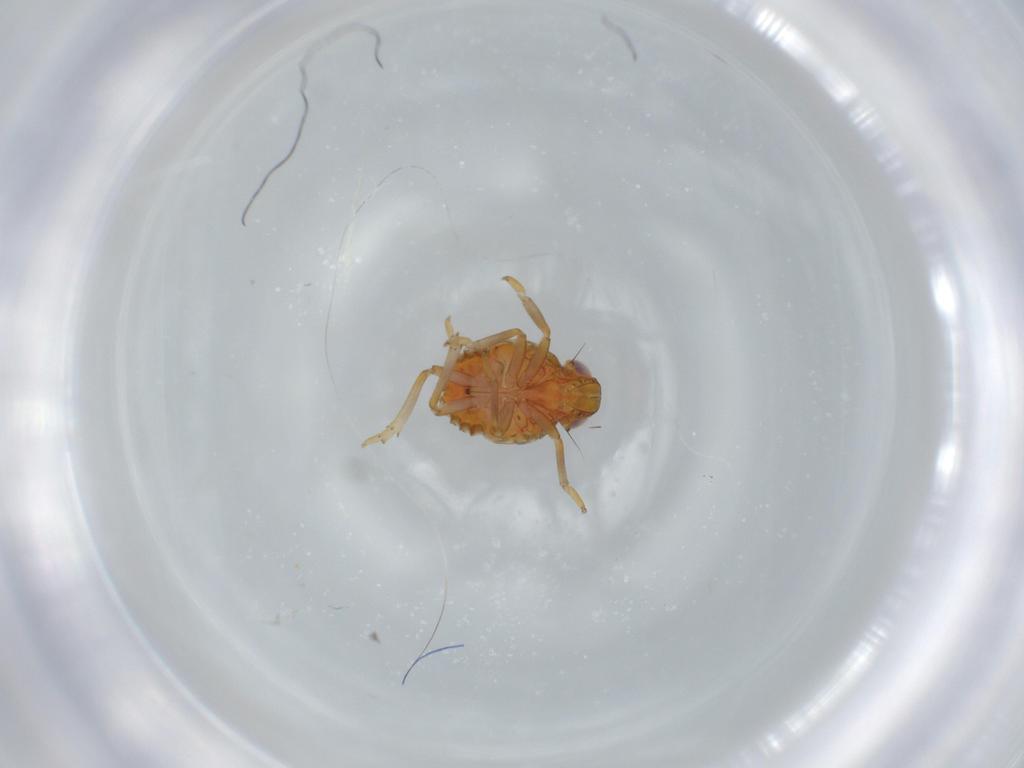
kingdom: Animalia
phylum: Arthropoda
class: Insecta
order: Hemiptera
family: Issidae
